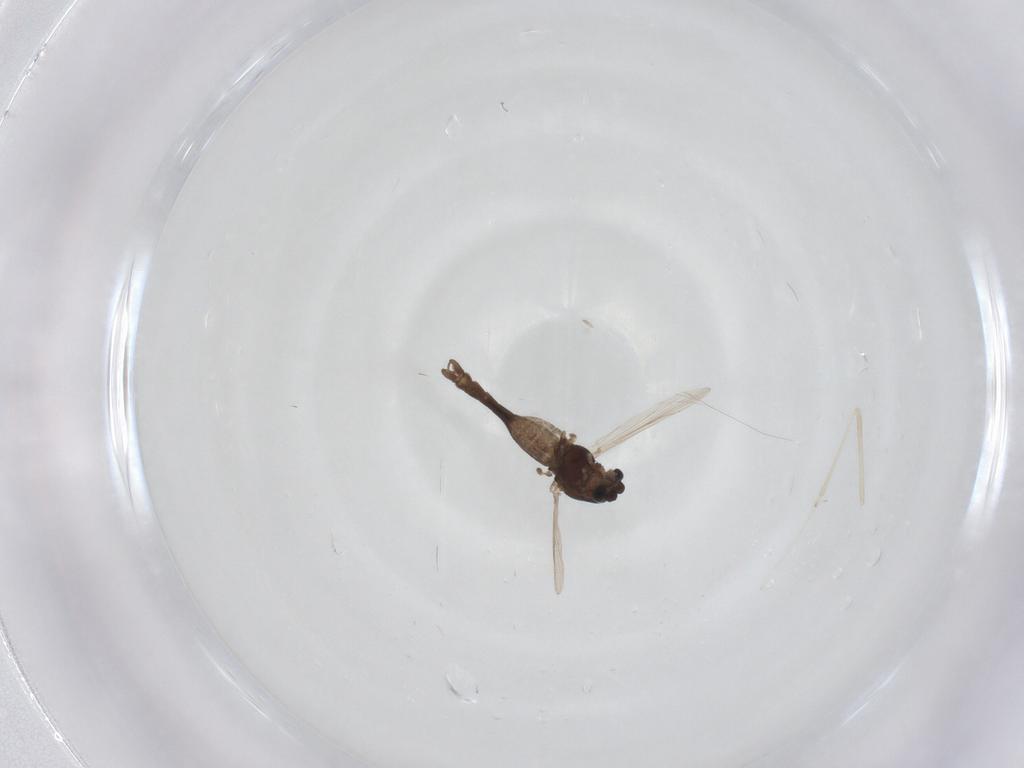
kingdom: Animalia
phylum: Arthropoda
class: Insecta
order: Diptera
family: Chironomidae
